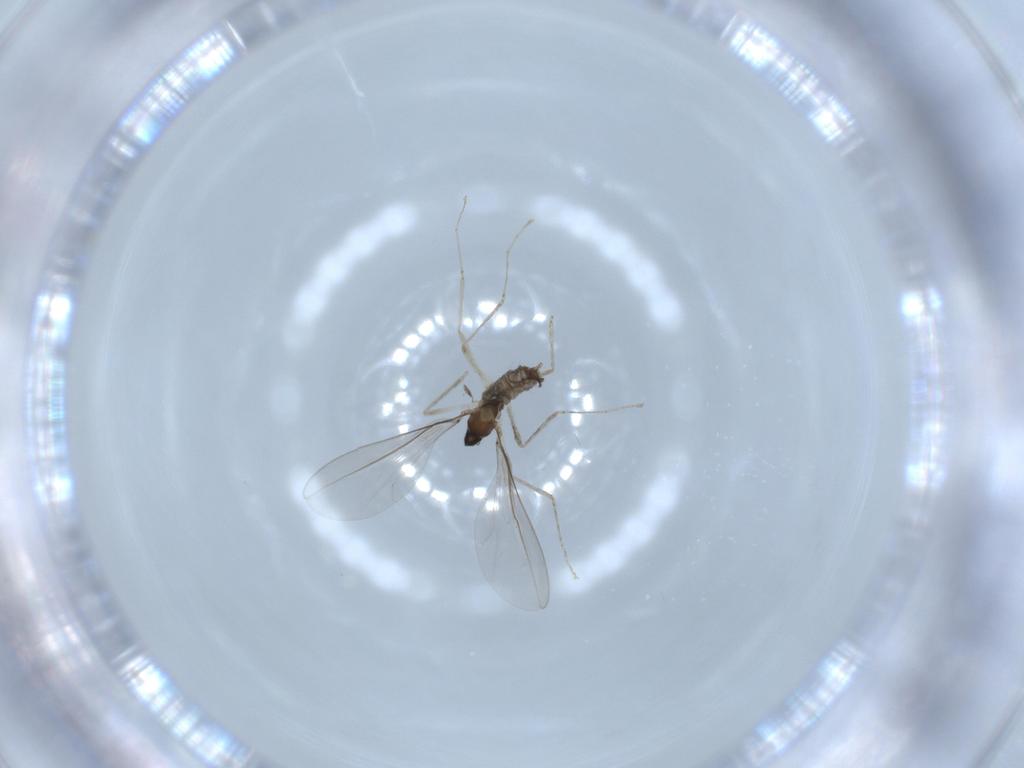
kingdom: Animalia
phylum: Arthropoda
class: Insecta
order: Diptera
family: Cecidomyiidae
